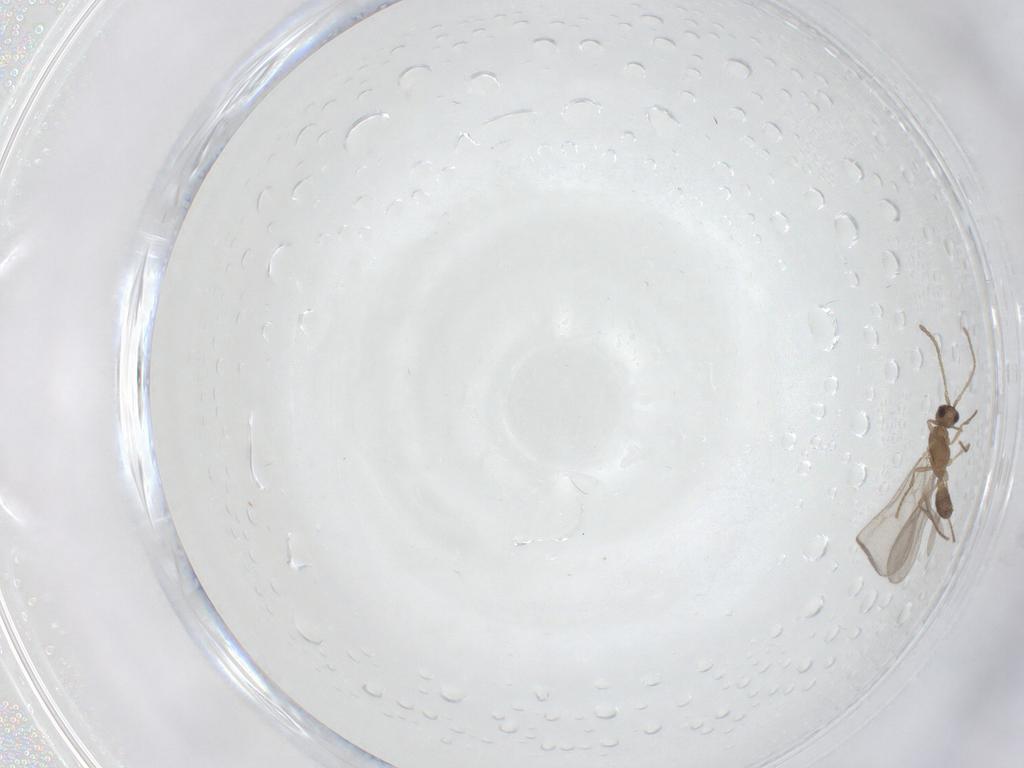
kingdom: Animalia
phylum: Arthropoda
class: Insecta
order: Hymenoptera
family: Formicidae
